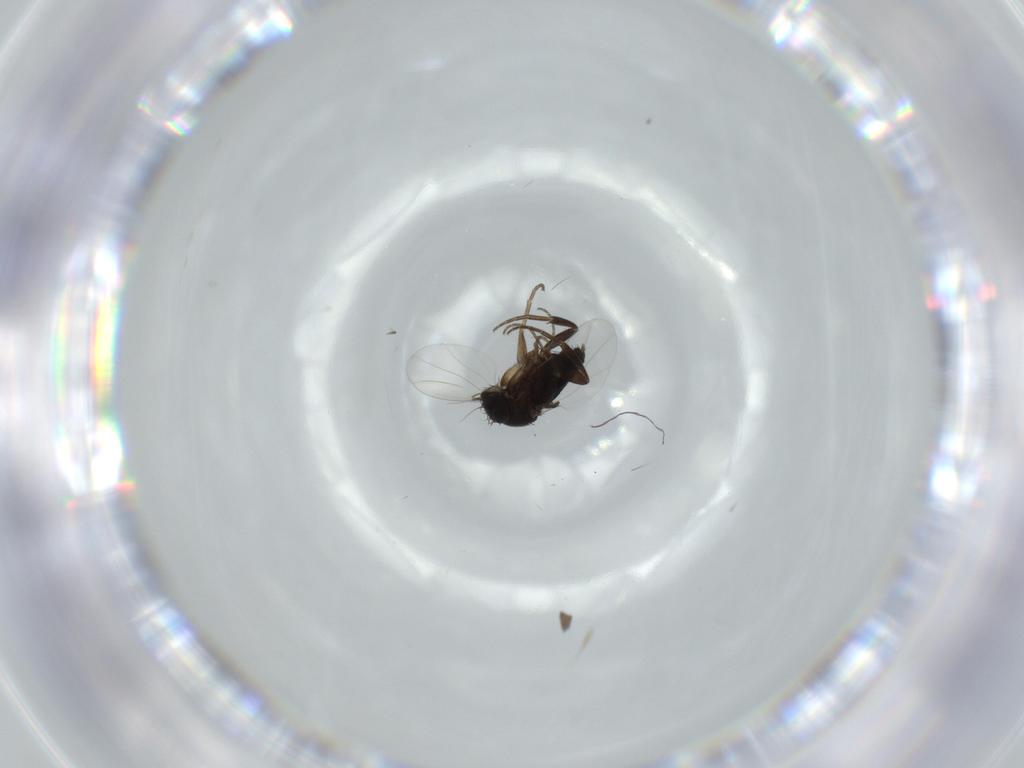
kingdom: Animalia
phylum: Arthropoda
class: Insecta
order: Diptera
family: Phoridae
